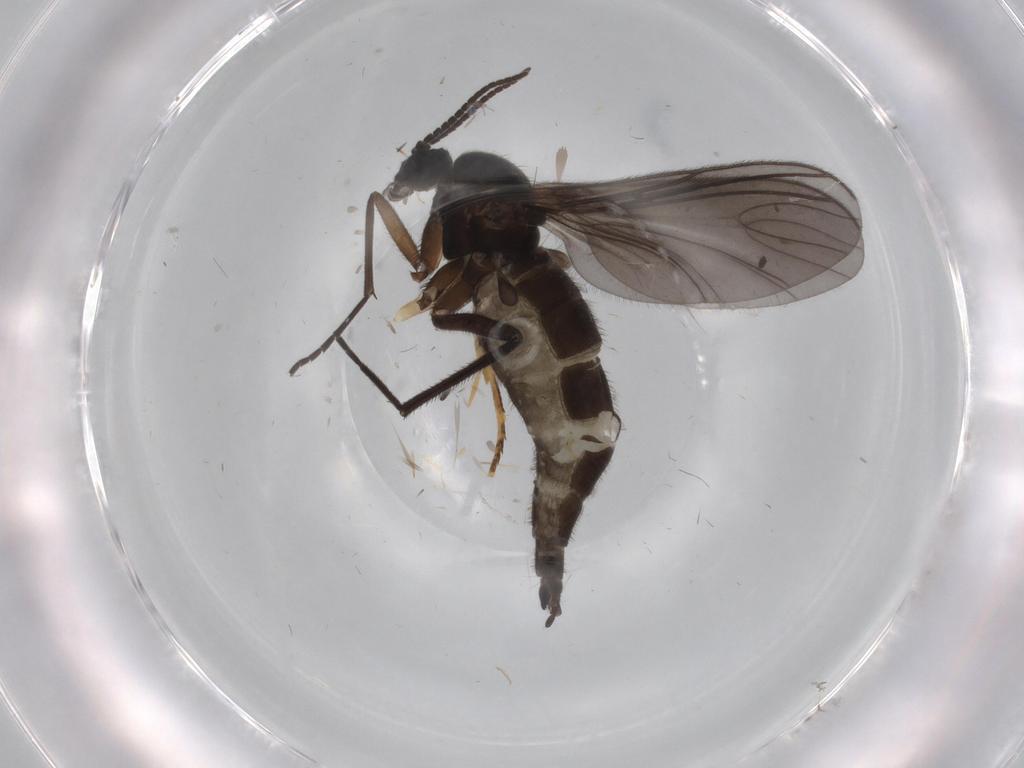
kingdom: Animalia
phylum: Arthropoda
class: Insecta
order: Diptera
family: Sciaridae
